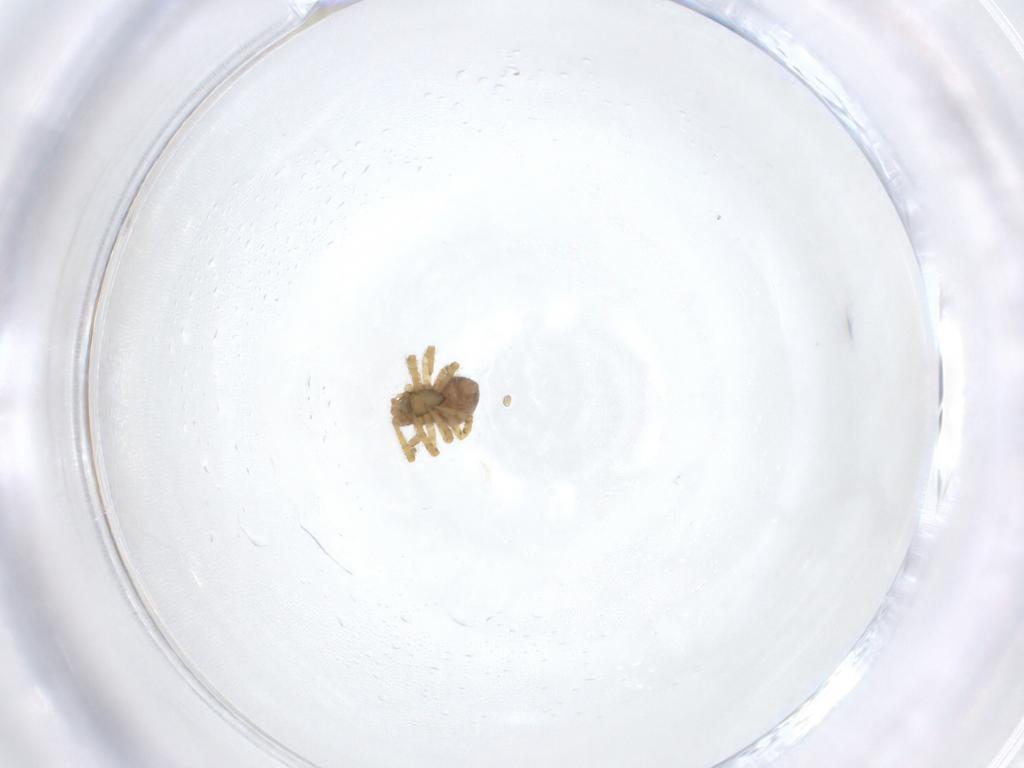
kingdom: Animalia
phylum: Arthropoda
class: Arachnida
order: Araneae
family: Theridiidae
